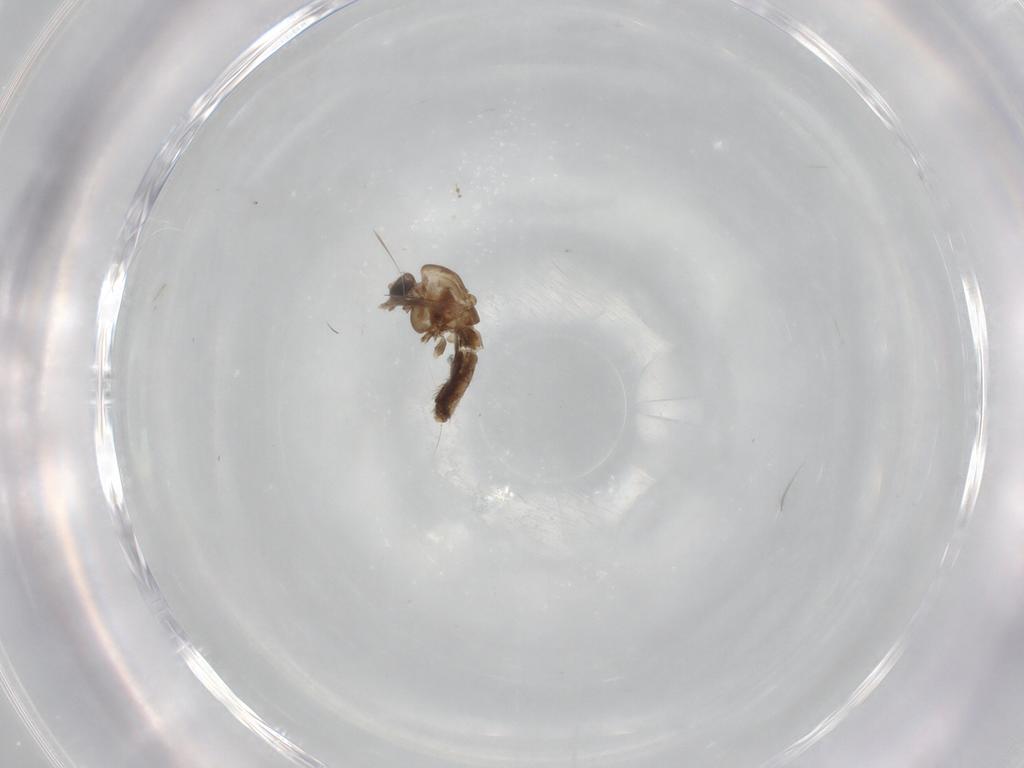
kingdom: Animalia
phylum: Arthropoda
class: Insecta
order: Diptera
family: Chironomidae
